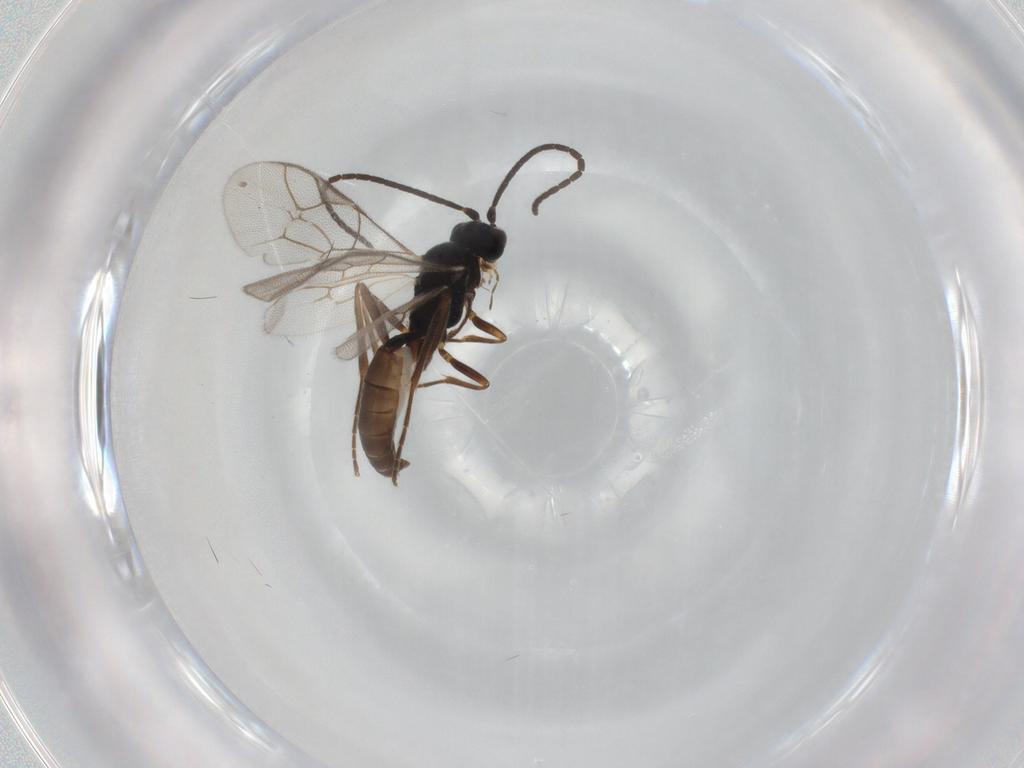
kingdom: Animalia
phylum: Arthropoda
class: Insecta
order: Hymenoptera
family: Ichneumonidae
